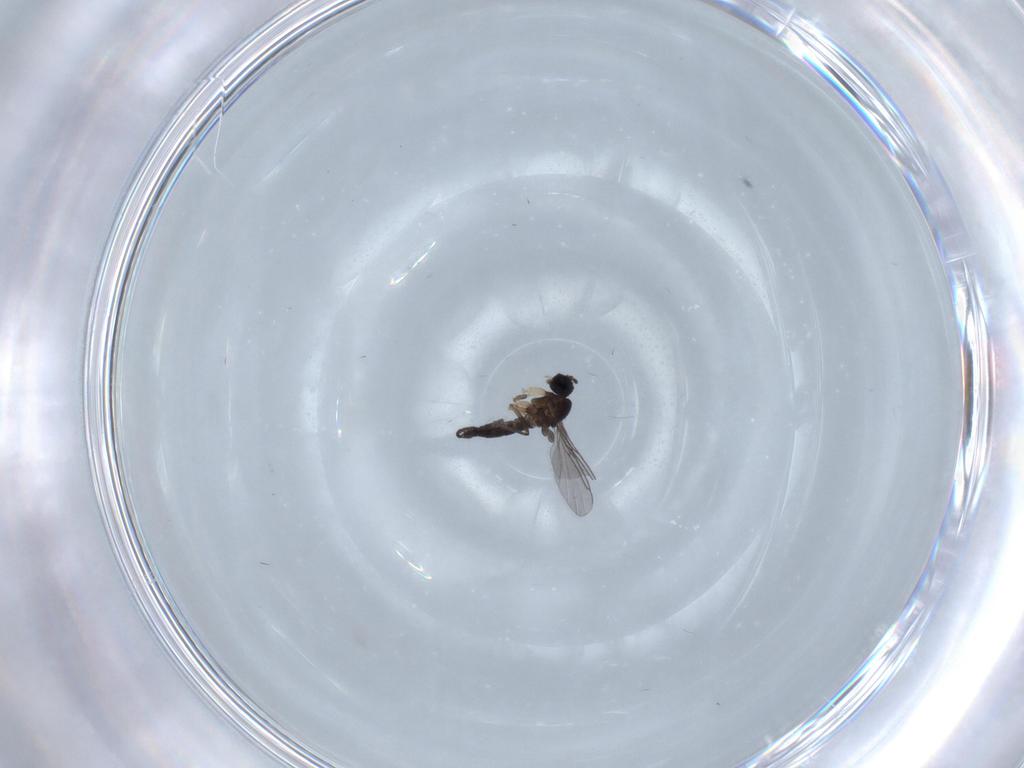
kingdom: Animalia
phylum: Arthropoda
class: Insecta
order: Diptera
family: Sciaridae
